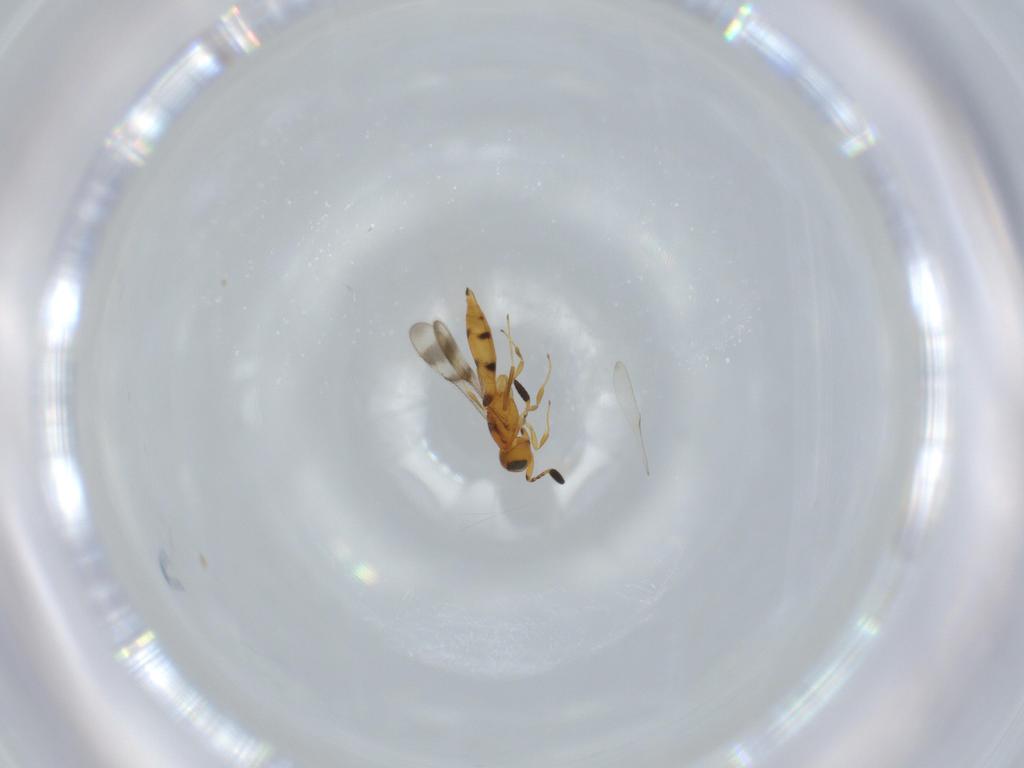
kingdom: Animalia
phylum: Arthropoda
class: Insecta
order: Hymenoptera
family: Scelionidae
